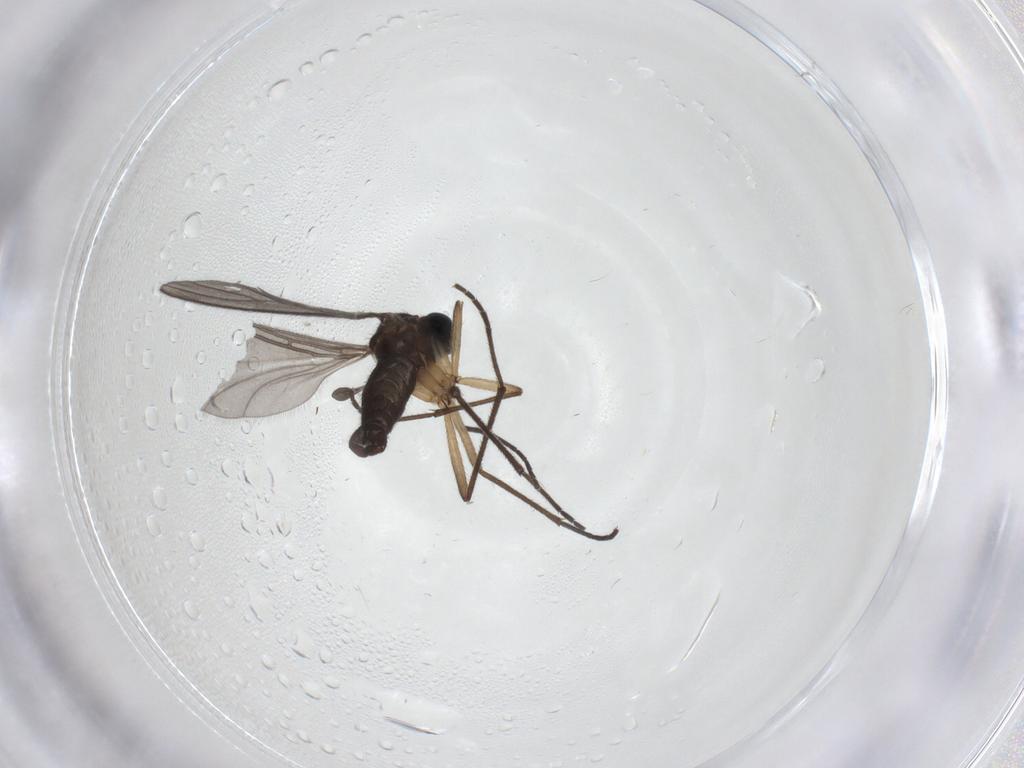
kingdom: Animalia
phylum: Arthropoda
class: Insecta
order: Diptera
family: Sciaridae
